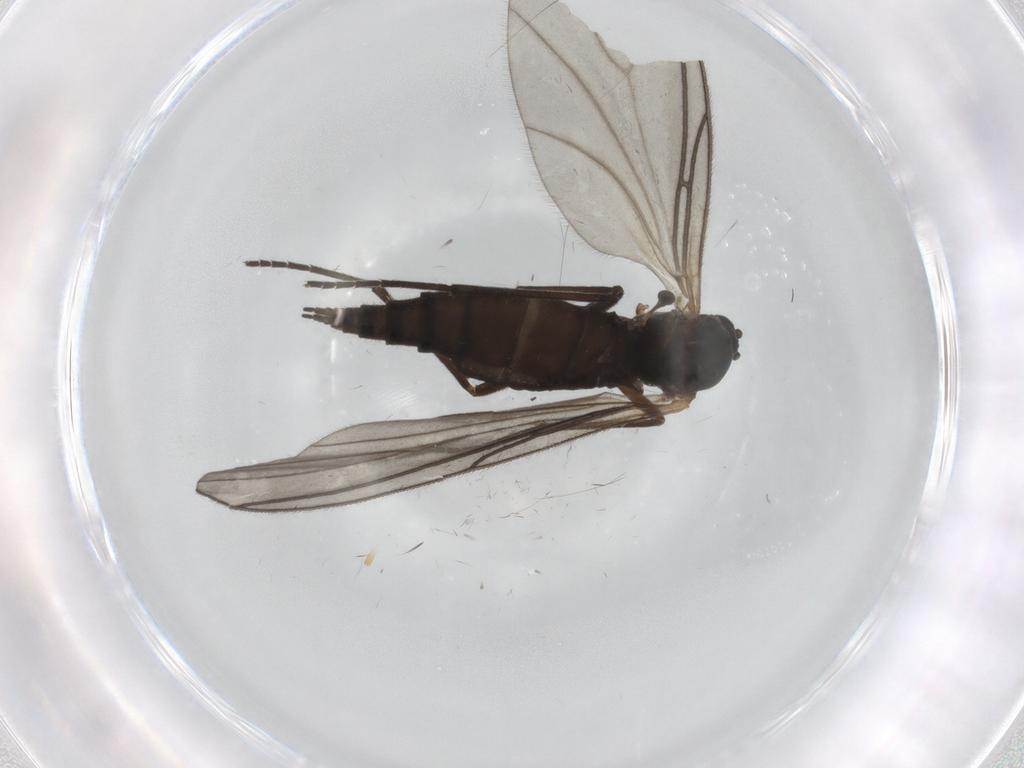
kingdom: Animalia
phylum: Arthropoda
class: Insecta
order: Diptera
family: Sciaridae
